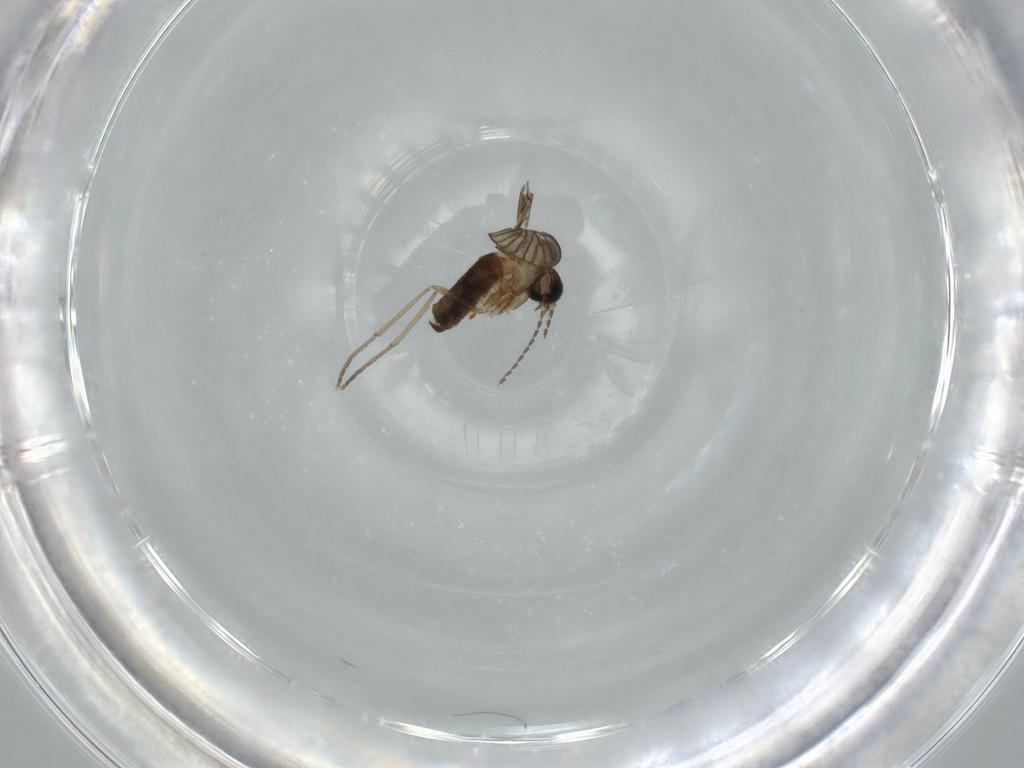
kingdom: Animalia
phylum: Arthropoda
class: Insecta
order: Diptera
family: Psychodidae
